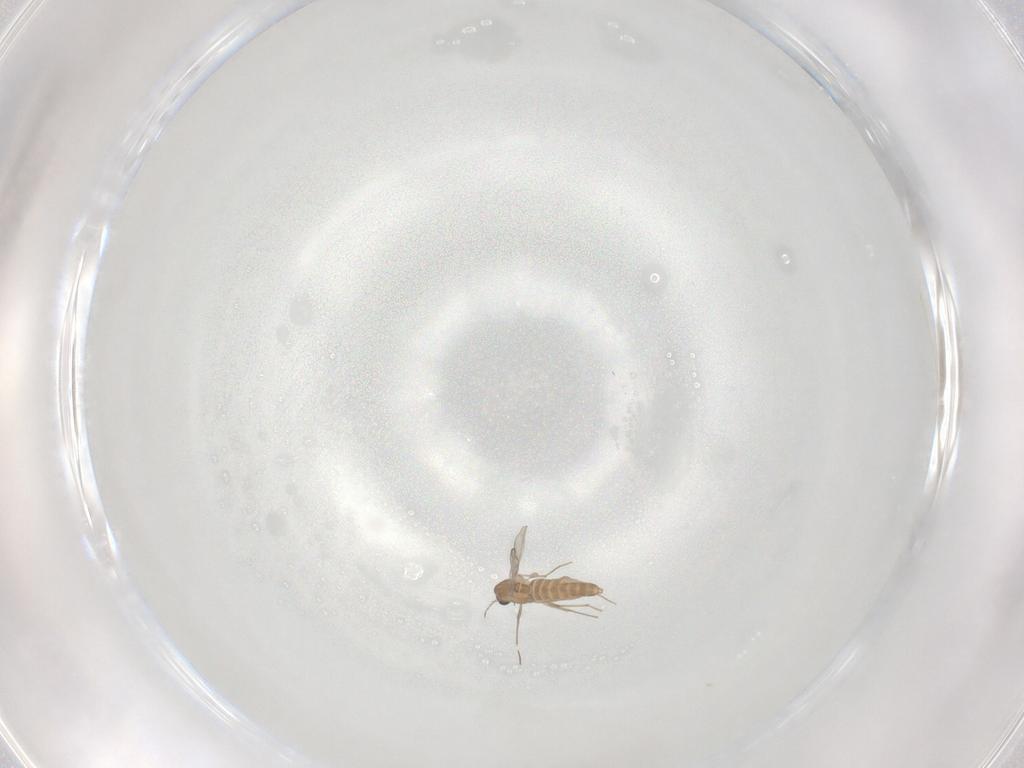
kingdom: Animalia
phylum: Arthropoda
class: Insecta
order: Diptera
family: Chironomidae
